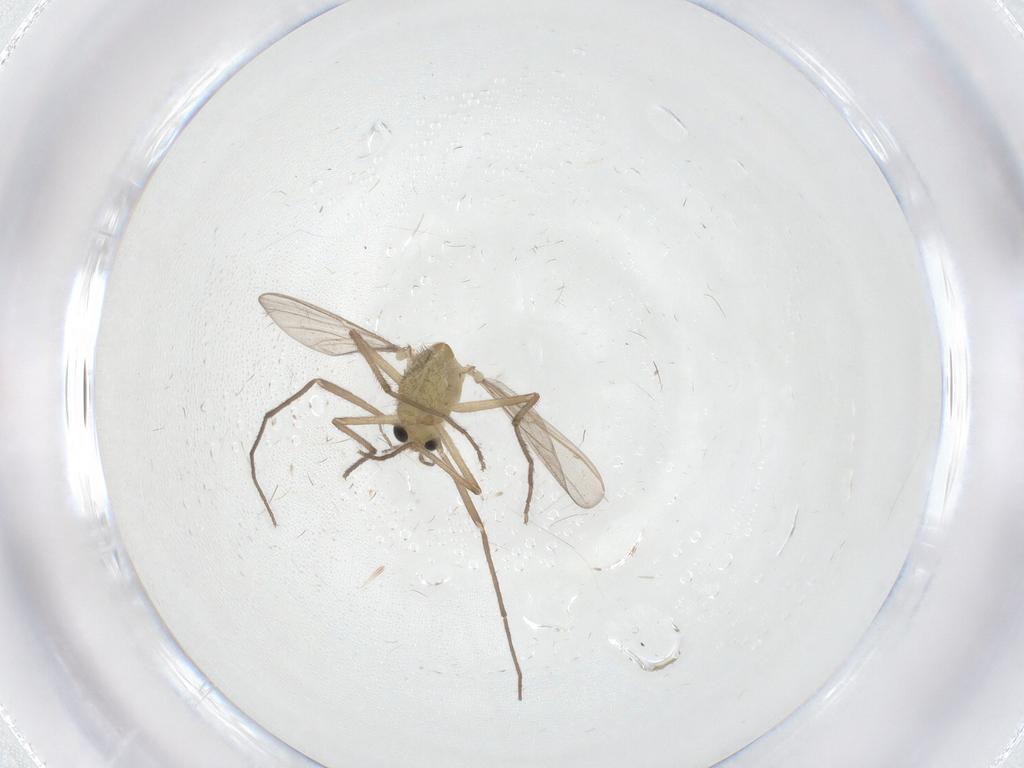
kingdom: Animalia
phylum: Arthropoda
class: Insecta
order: Diptera
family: Chironomidae
